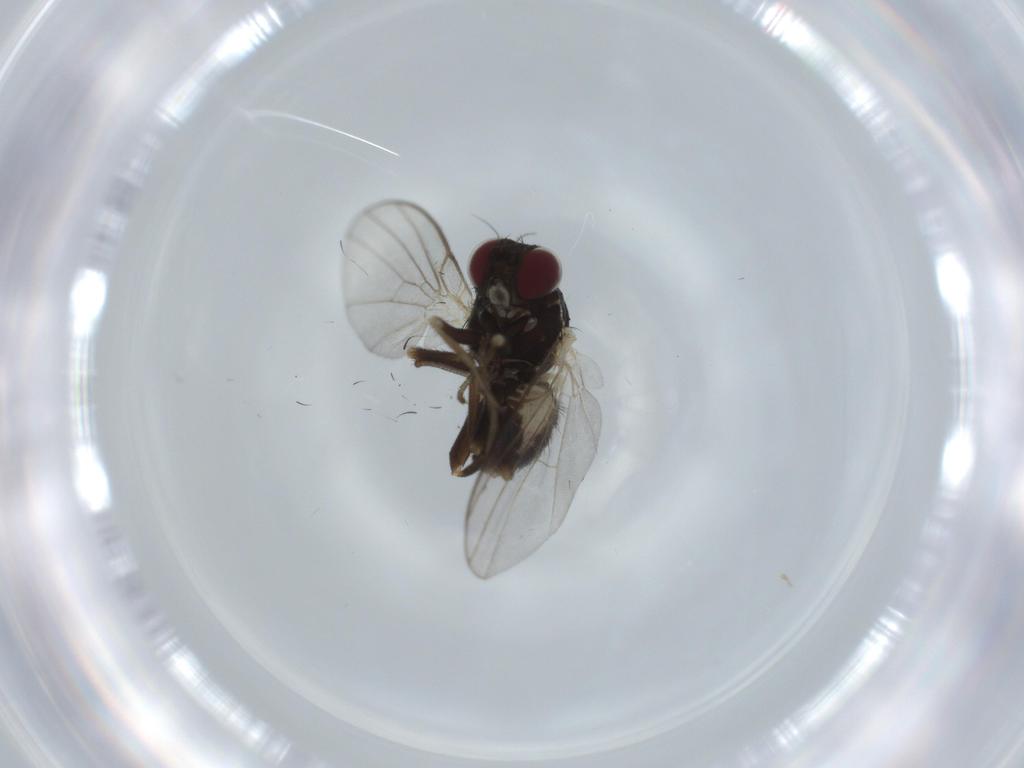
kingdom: Animalia
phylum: Arthropoda
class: Insecta
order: Diptera
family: Agromyzidae
